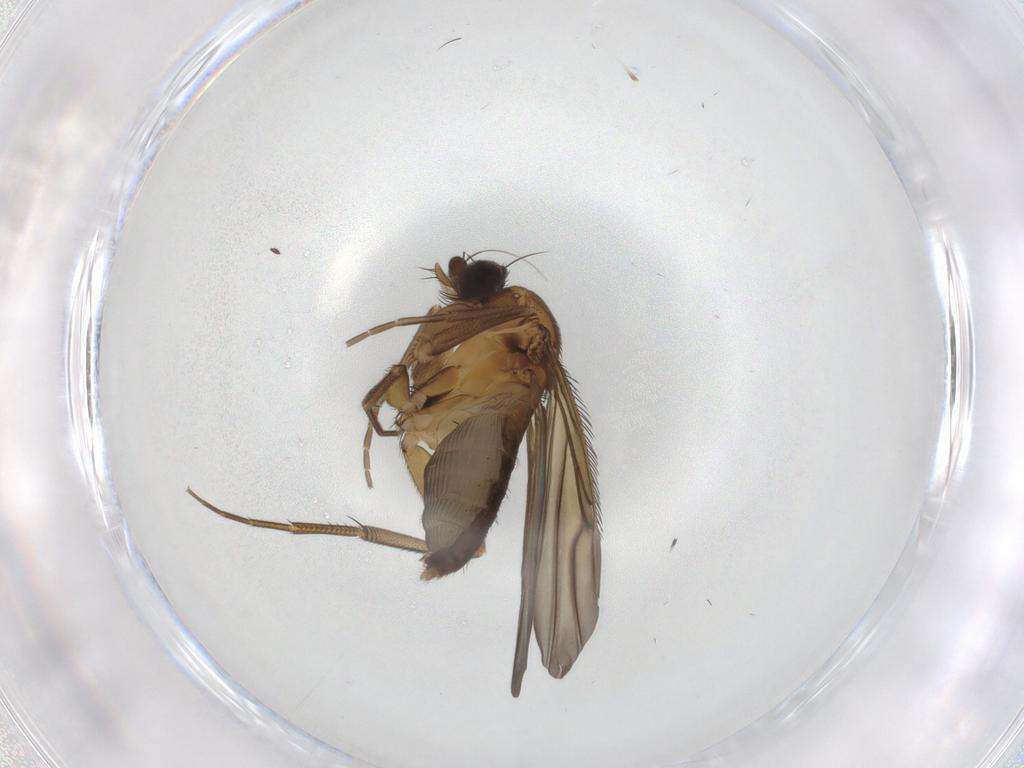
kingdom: Animalia
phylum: Arthropoda
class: Insecta
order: Diptera
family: Phoridae
